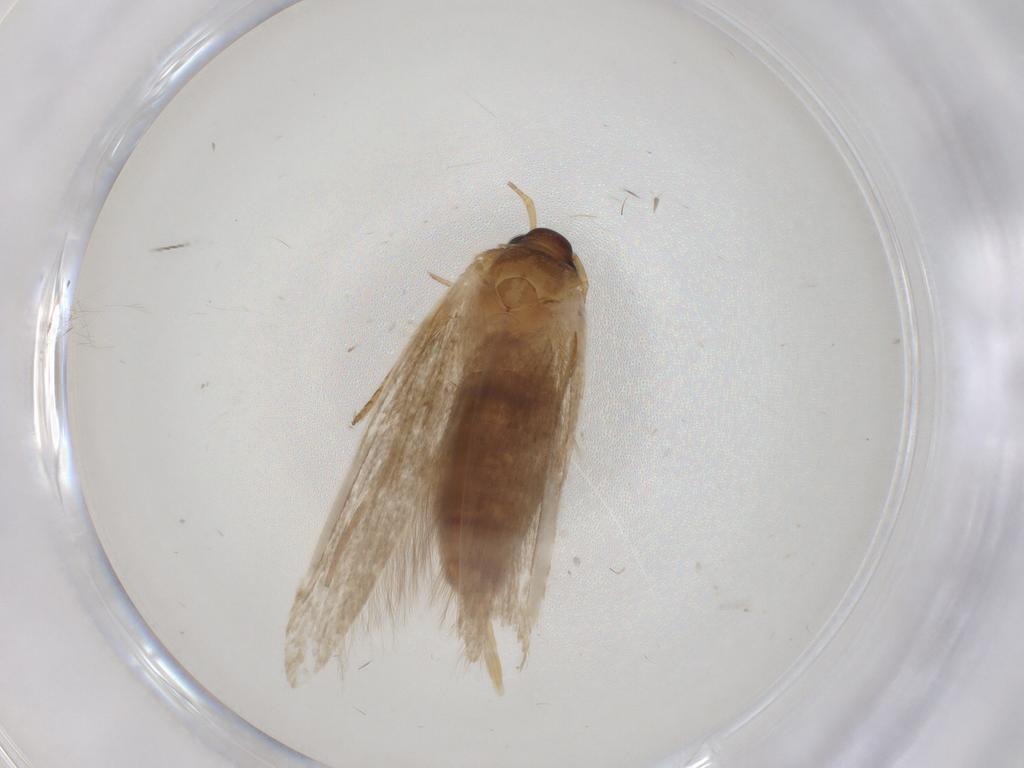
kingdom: Animalia
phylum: Arthropoda
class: Insecta
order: Lepidoptera
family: Blastobasidae
